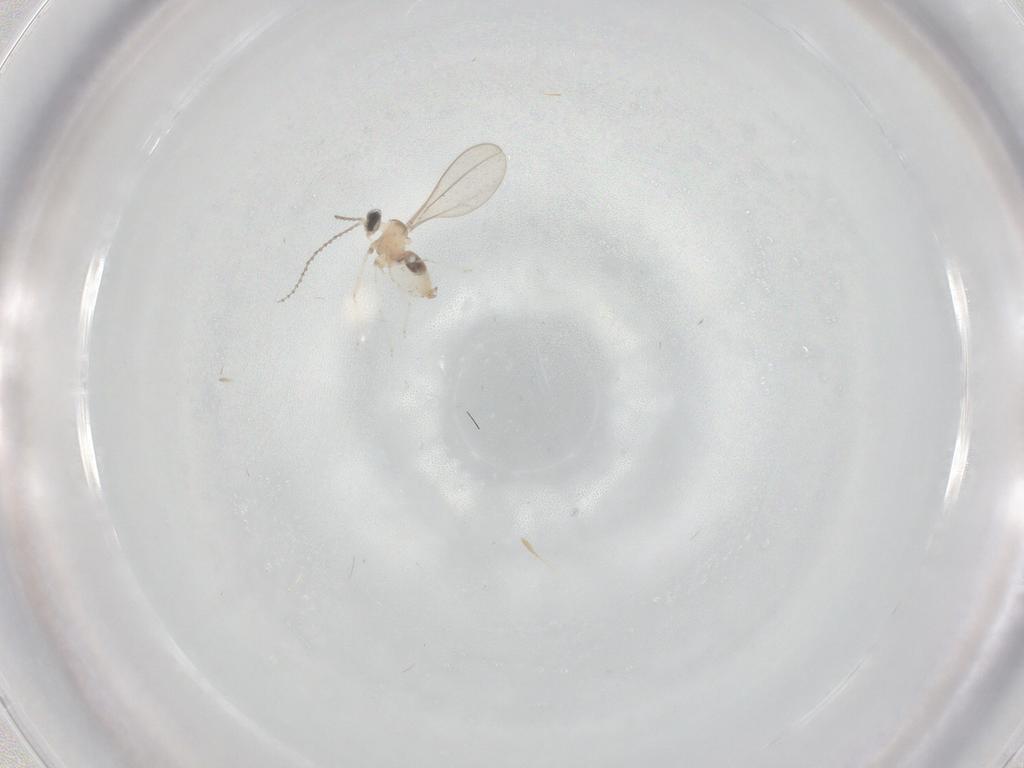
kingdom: Animalia
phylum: Arthropoda
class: Insecta
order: Diptera
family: Cecidomyiidae
